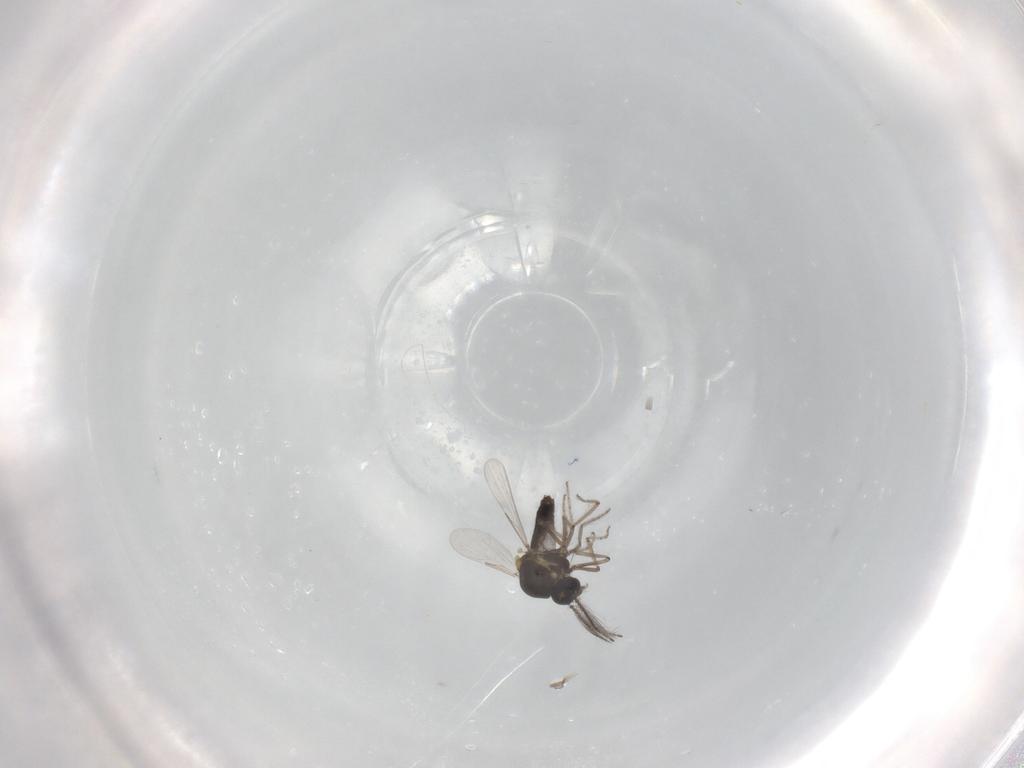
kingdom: Animalia
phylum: Arthropoda
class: Insecta
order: Diptera
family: Ceratopogonidae
